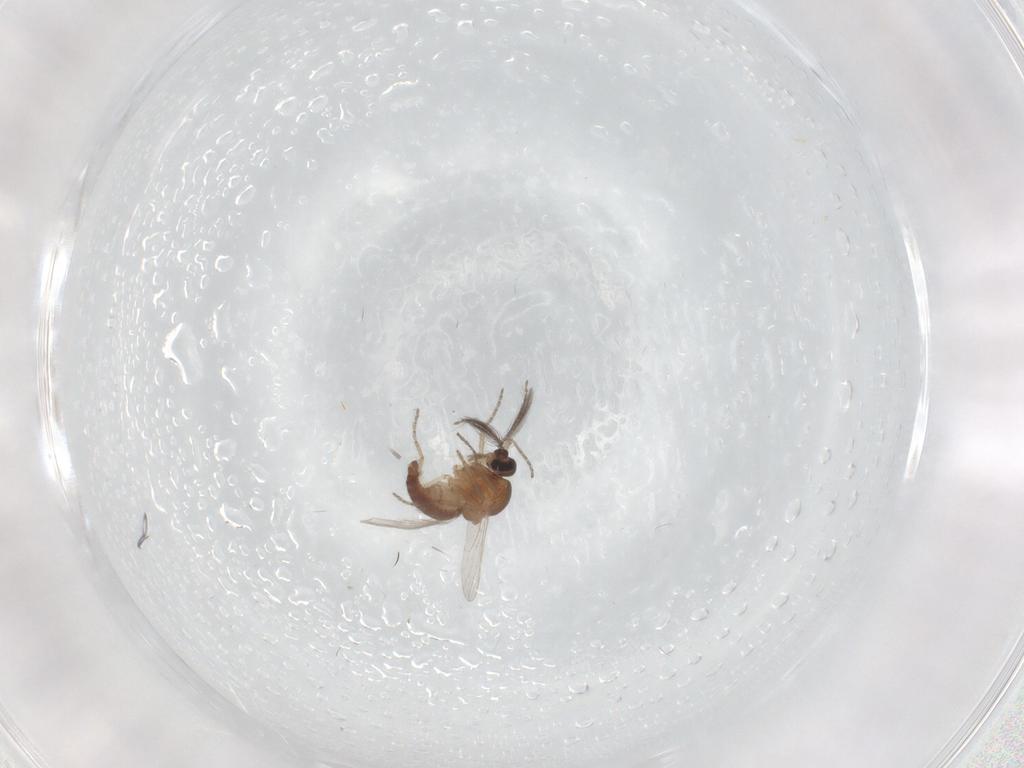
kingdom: Animalia
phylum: Arthropoda
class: Insecta
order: Diptera
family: Ceratopogonidae
